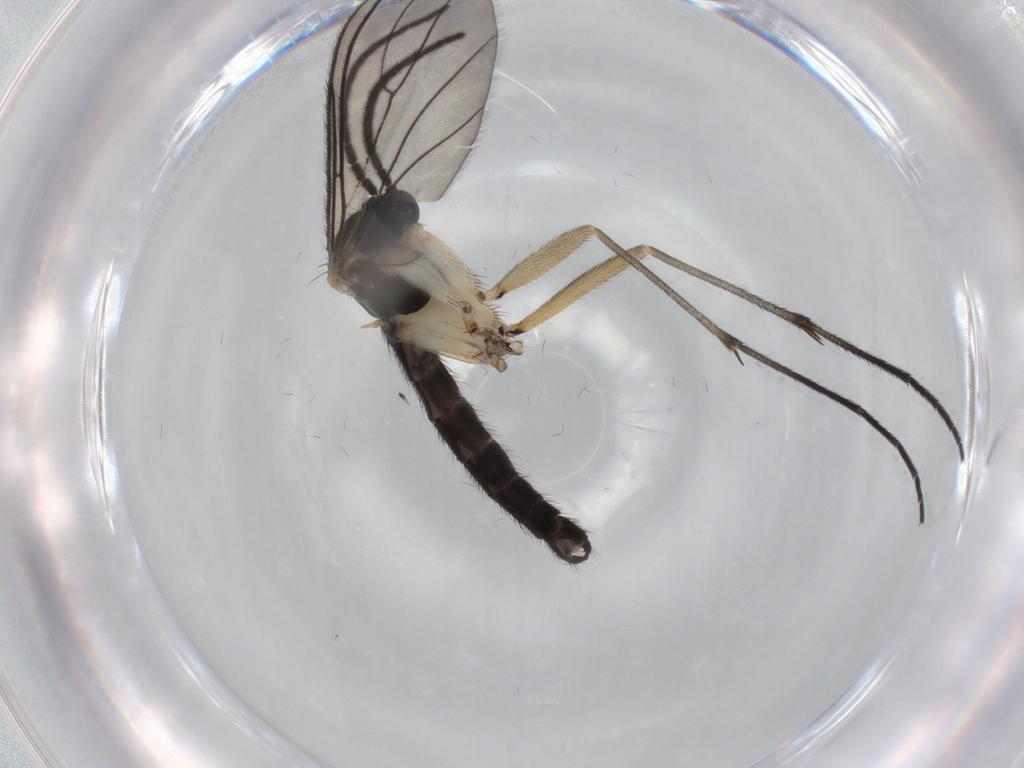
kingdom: Animalia
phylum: Arthropoda
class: Insecta
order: Diptera
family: Sciaridae
